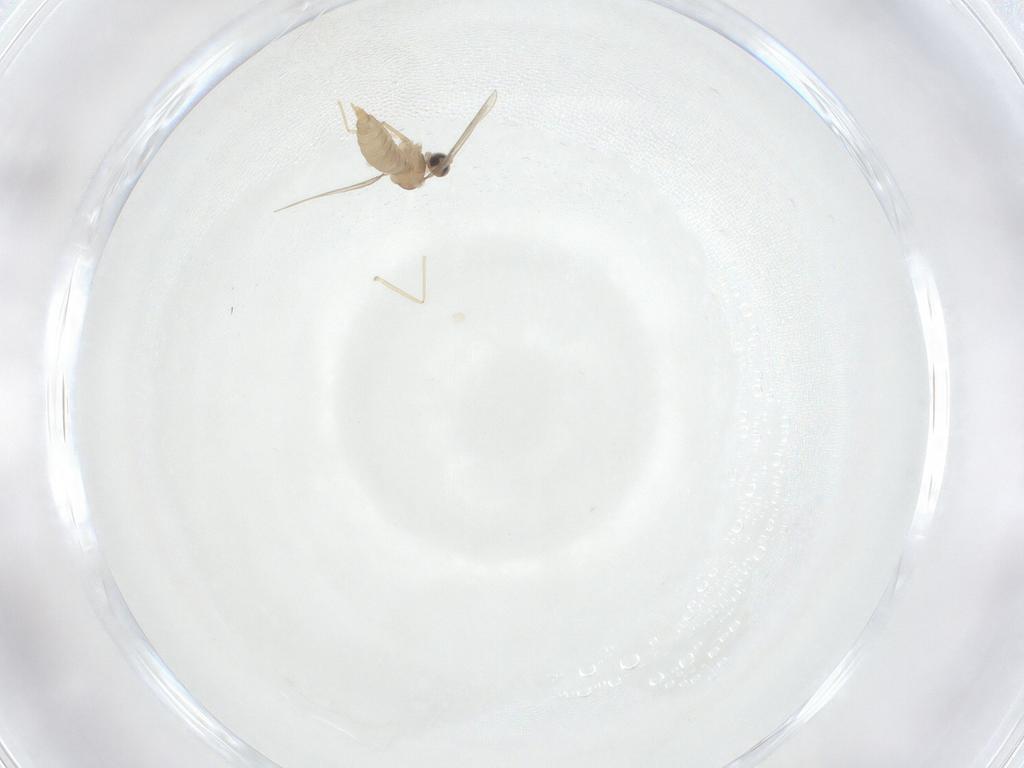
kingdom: Animalia
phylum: Arthropoda
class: Insecta
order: Diptera
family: Cecidomyiidae
